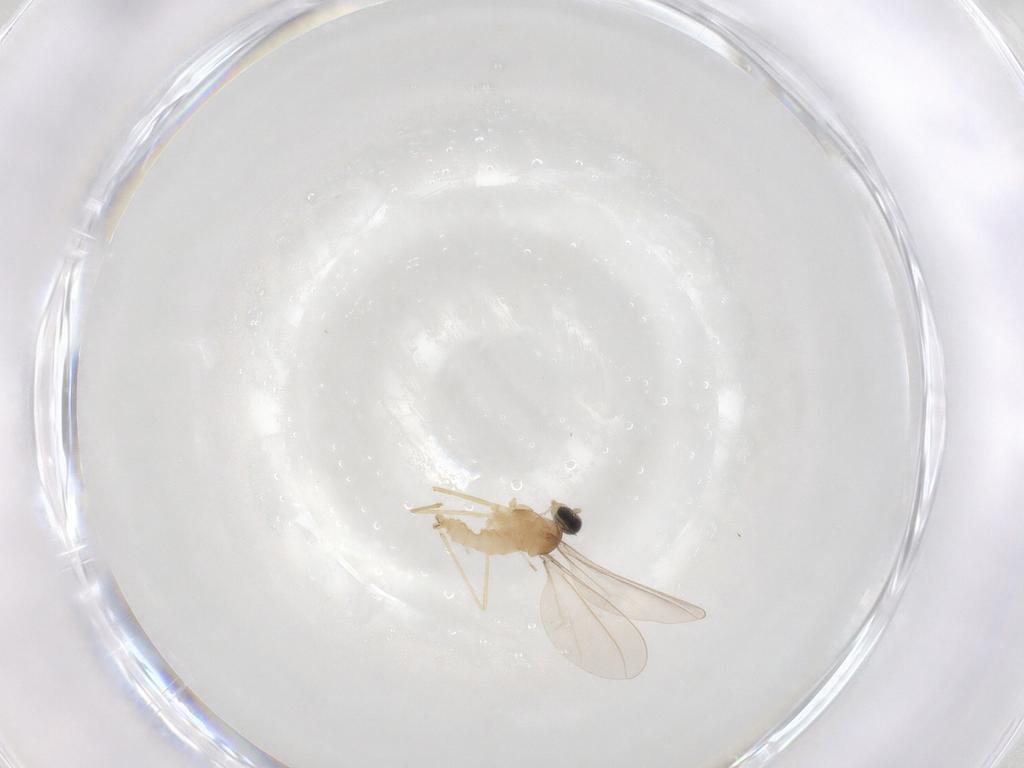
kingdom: Animalia
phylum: Arthropoda
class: Insecta
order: Diptera
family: Cecidomyiidae
